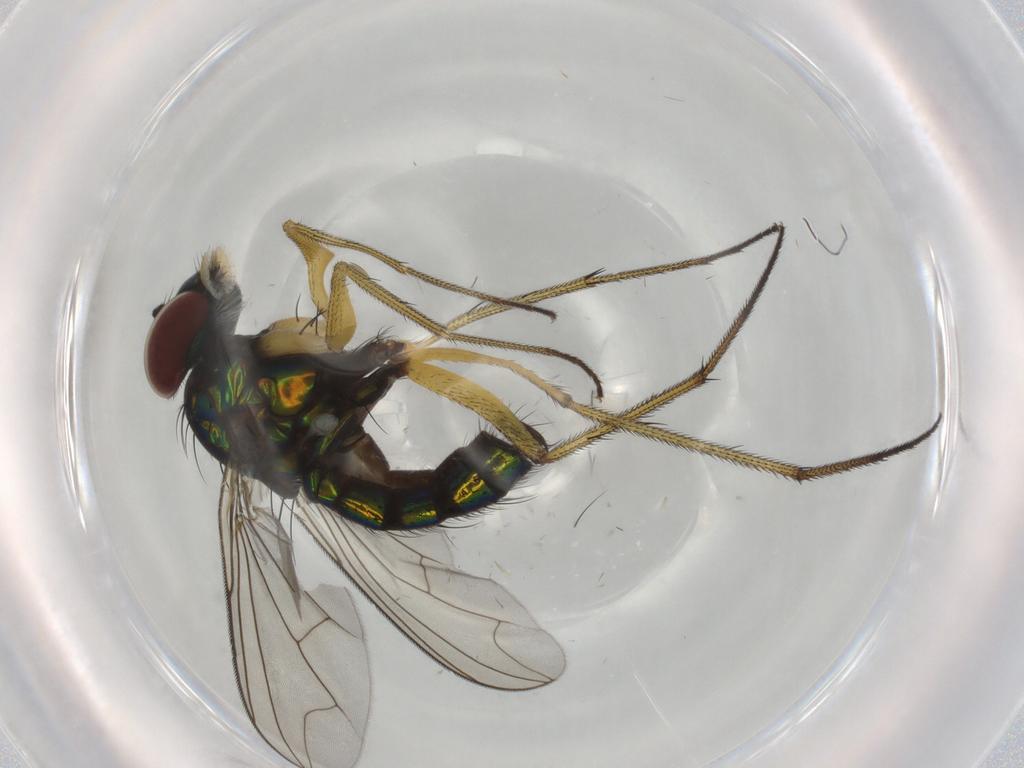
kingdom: Animalia
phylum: Arthropoda
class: Insecta
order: Diptera
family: Dolichopodidae
